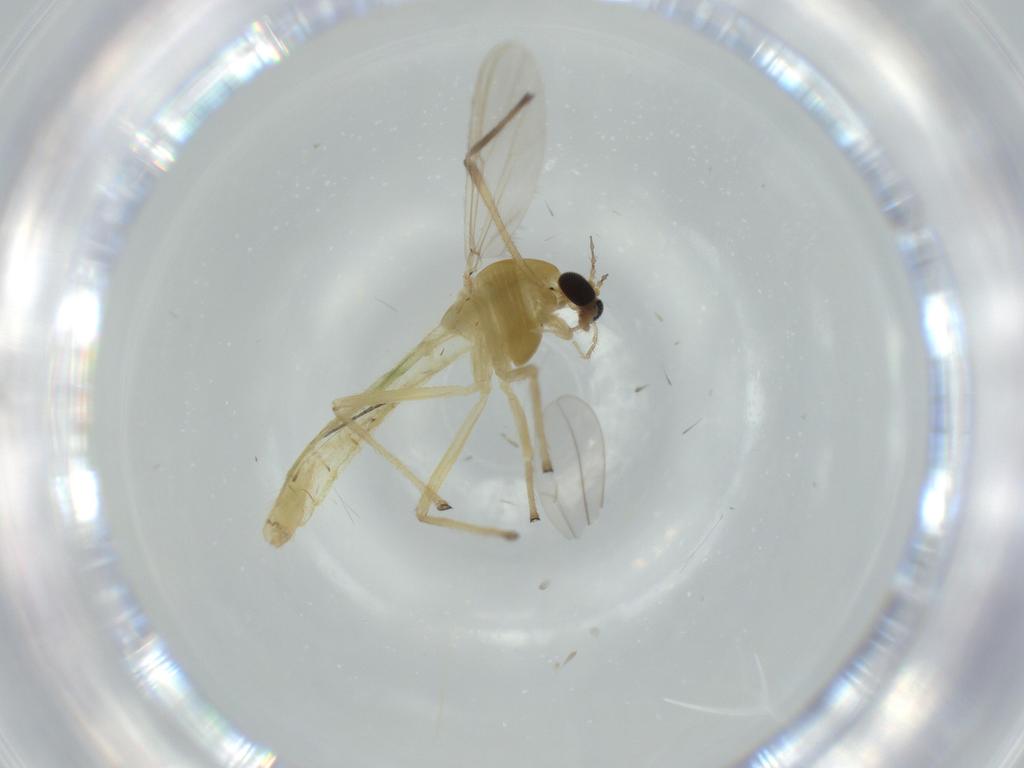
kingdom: Animalia
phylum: Arthropoda
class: Insecta
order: Diptera
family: Chironomidae
